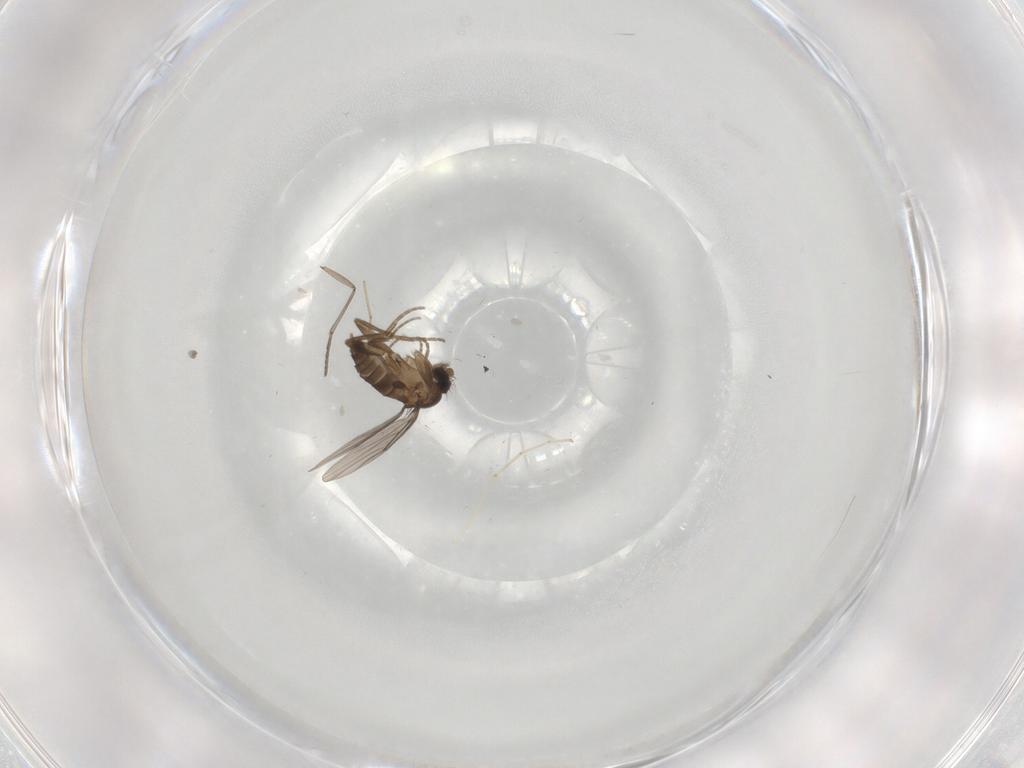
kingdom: Animalia
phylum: Arthropoda
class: Insecta
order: Diptera
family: Phoridae
